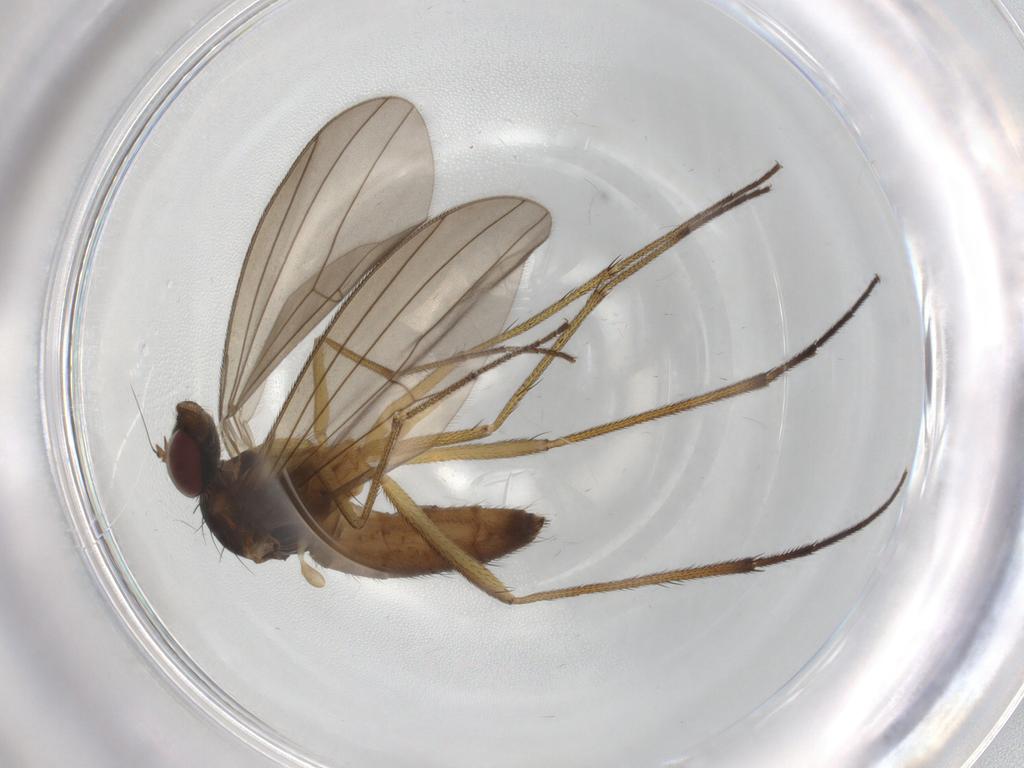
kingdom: Animalia
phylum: Arthropoda
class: Insecta
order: Diptera
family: Dolichopodidae
